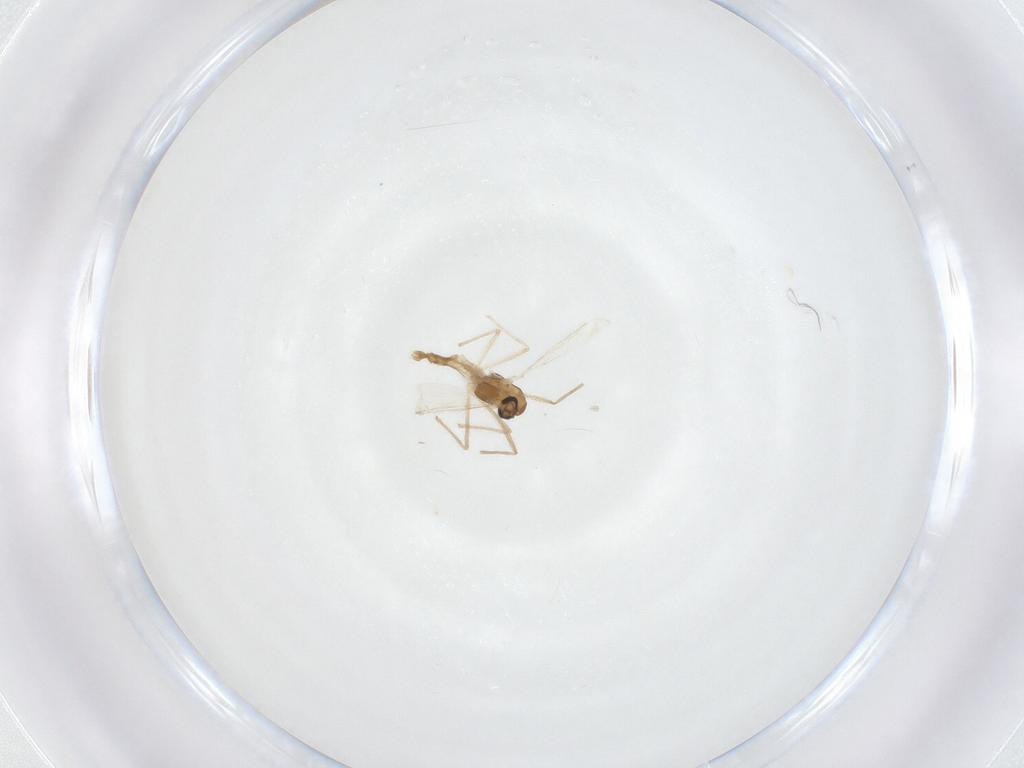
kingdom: Animalia
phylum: Arthropoda
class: Insecta
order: Diptera
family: Chironomidae
